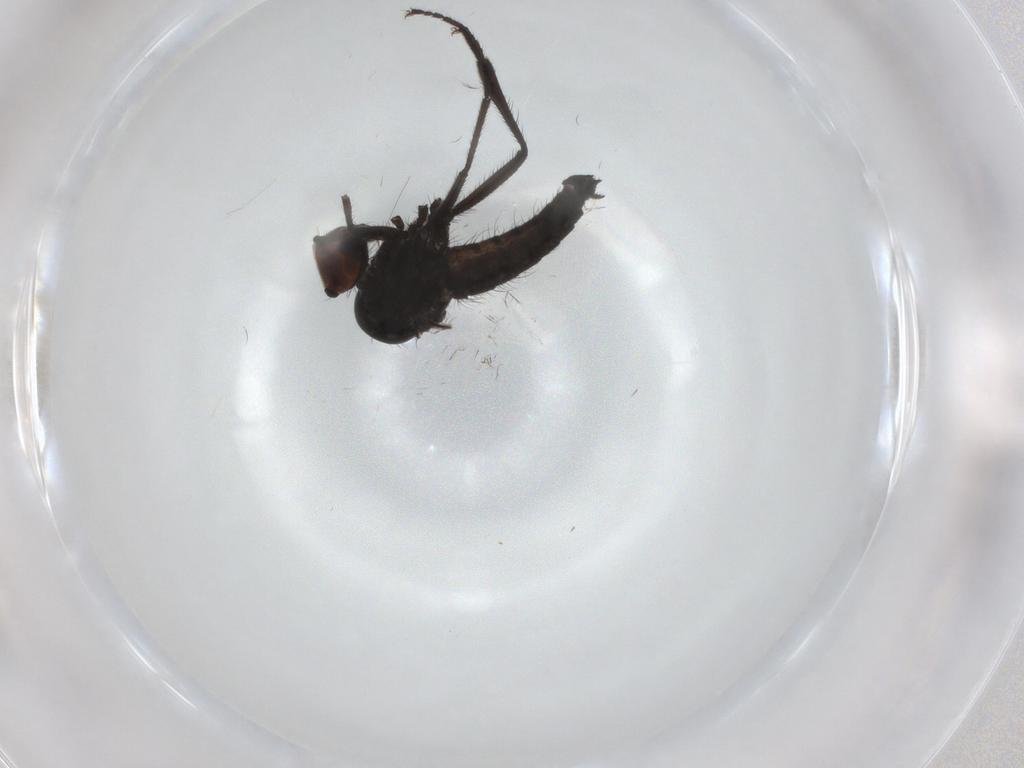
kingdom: Animalia
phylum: Arthropoda
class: Insecta
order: Diptera
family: Hybotidae
